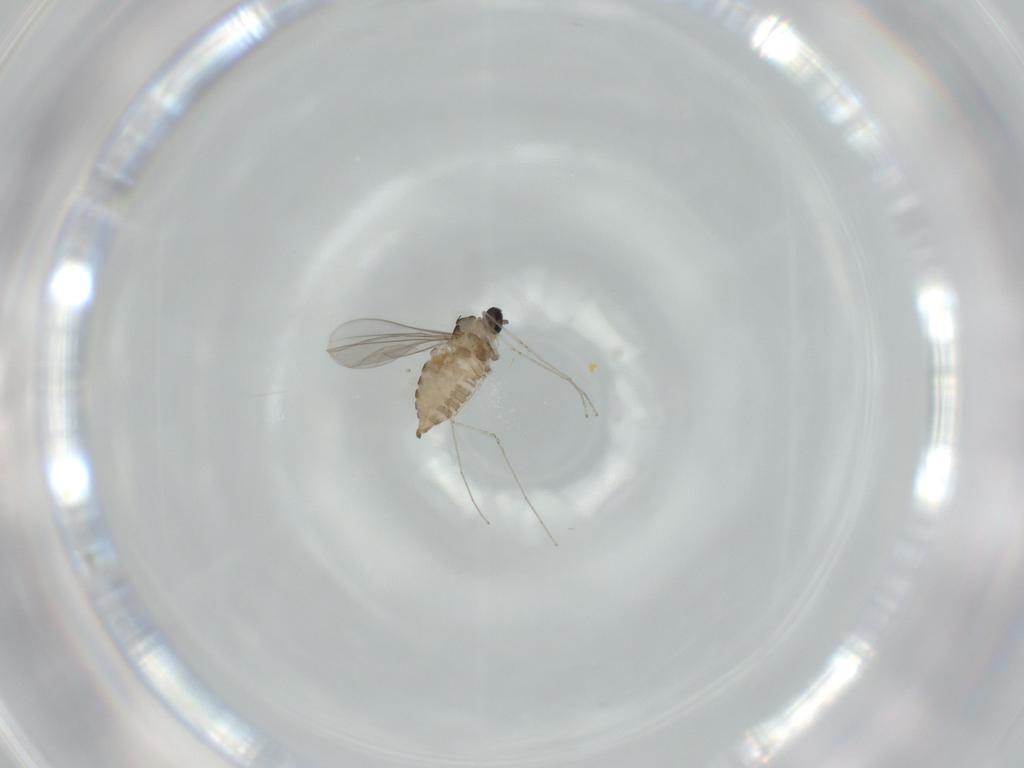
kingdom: Animalia
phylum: Arthropoda
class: Insecta
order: Diptera
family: Cecidomyiidae
